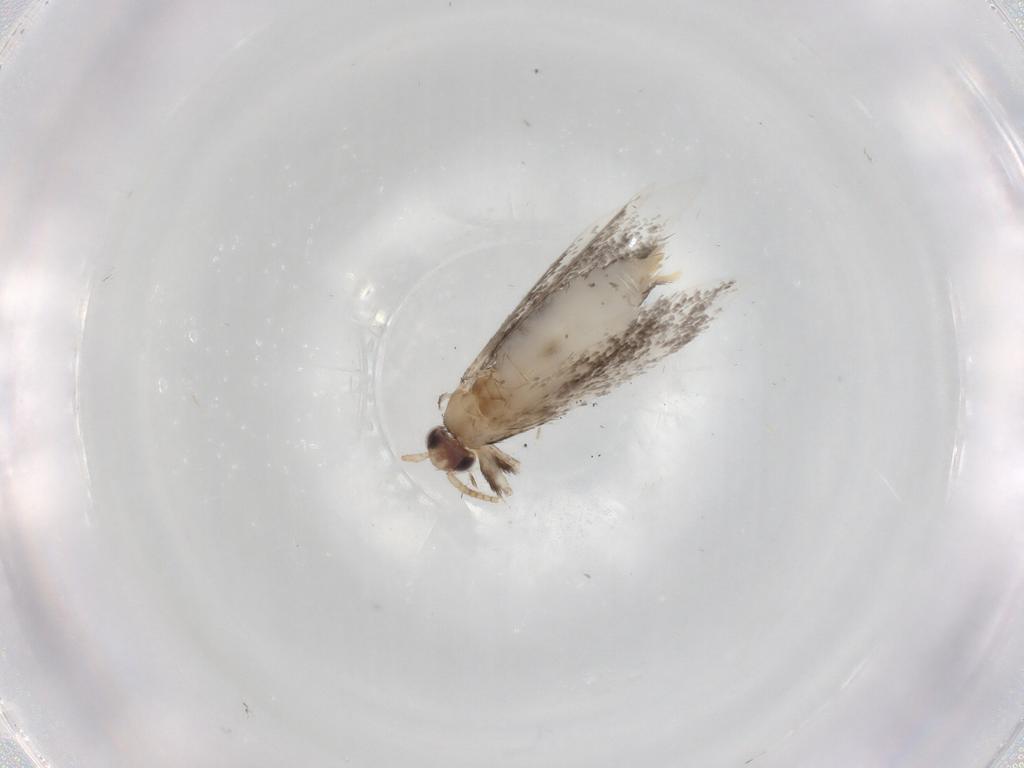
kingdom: Animalia
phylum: Arthropoda
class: Insecta
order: Lepidoptera
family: Tineidae
